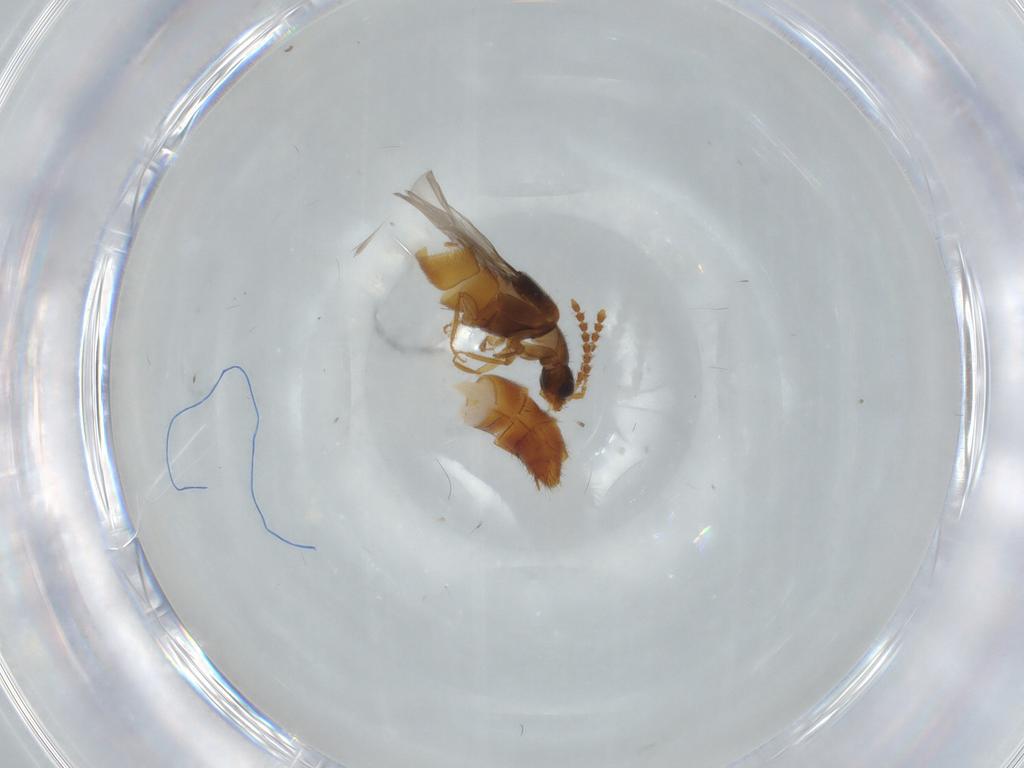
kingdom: Animalia
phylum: Arthropoda
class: Insecta
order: Coleoptera
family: Staphylinidae
